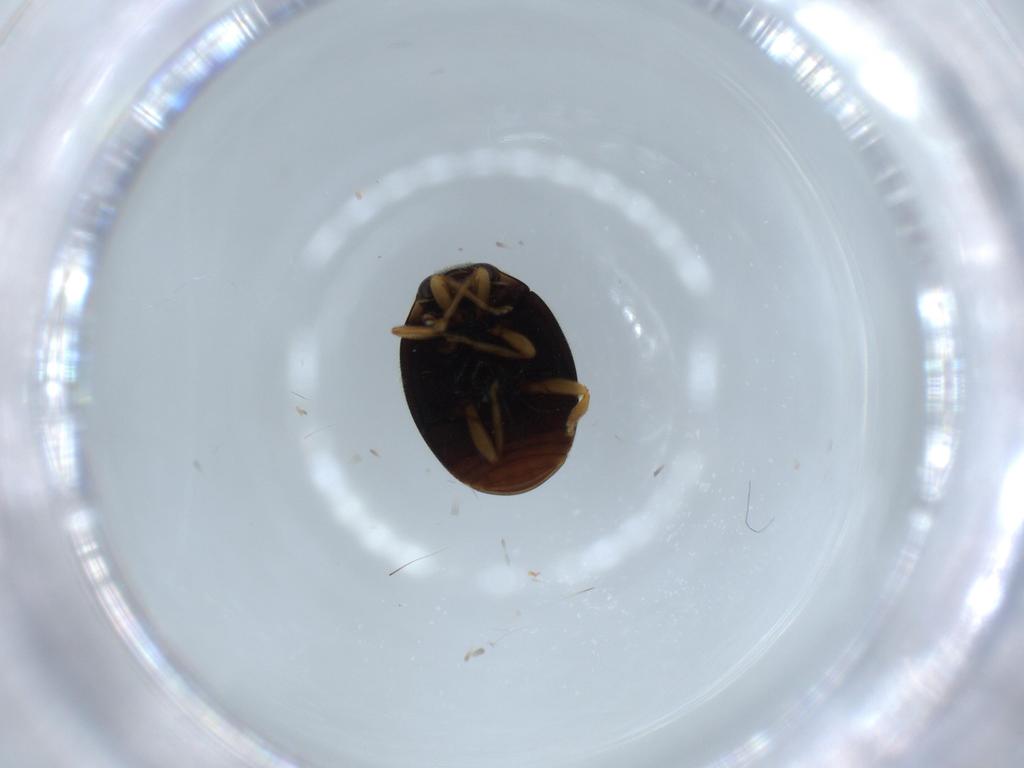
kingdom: Animalia
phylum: Arthropoda
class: Insecta
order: Coleoptera
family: Coccinellidae
